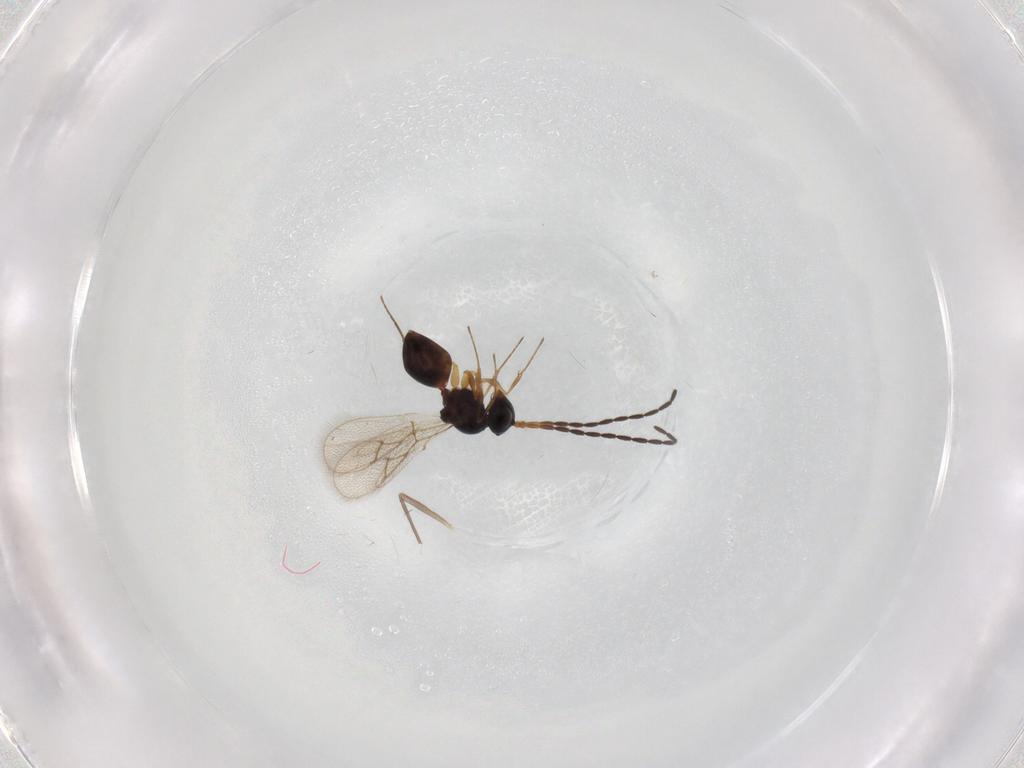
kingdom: Animalia
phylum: Arthropoda
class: Insecta
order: Hymenoptera
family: Figitidae
